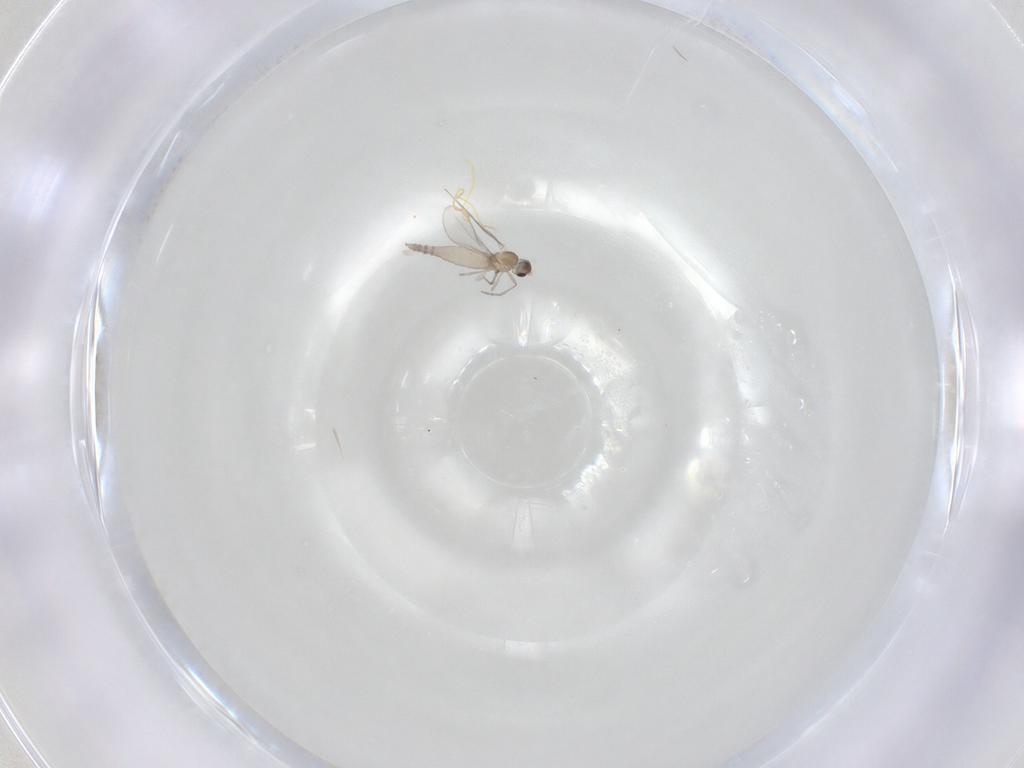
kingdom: Animalia
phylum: Arthropoda
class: Insecta
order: Diptera
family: Cecidomyiidae
